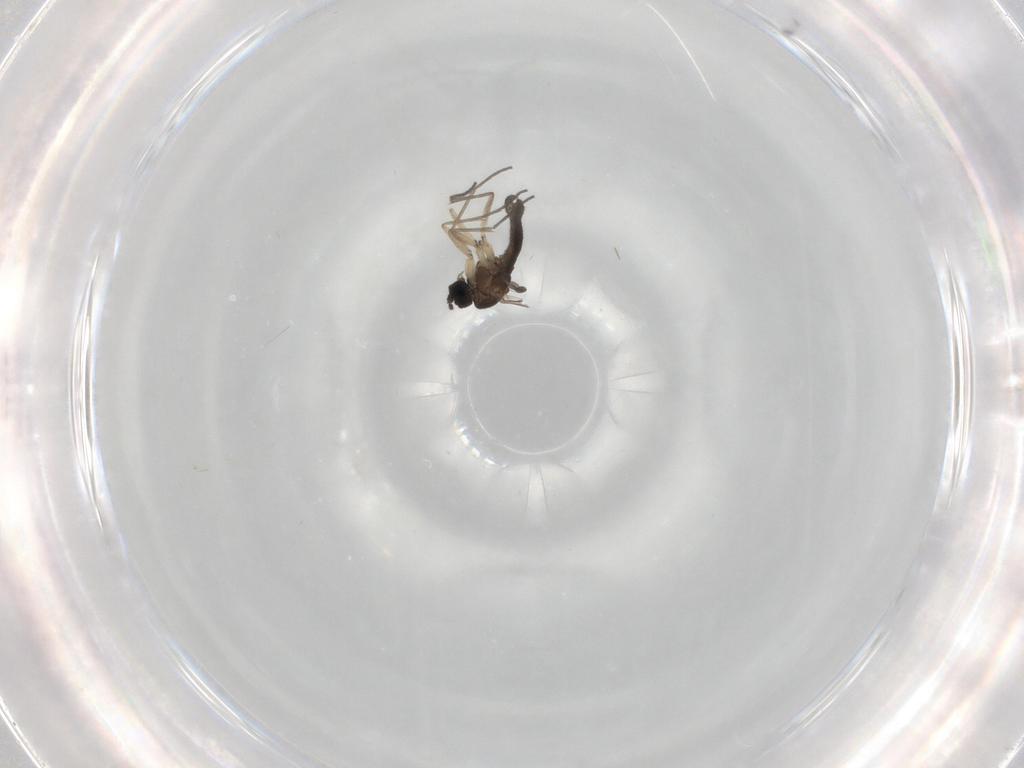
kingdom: Animalia
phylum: Arthropoda
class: Insecta
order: Diptera
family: Sciaridae
